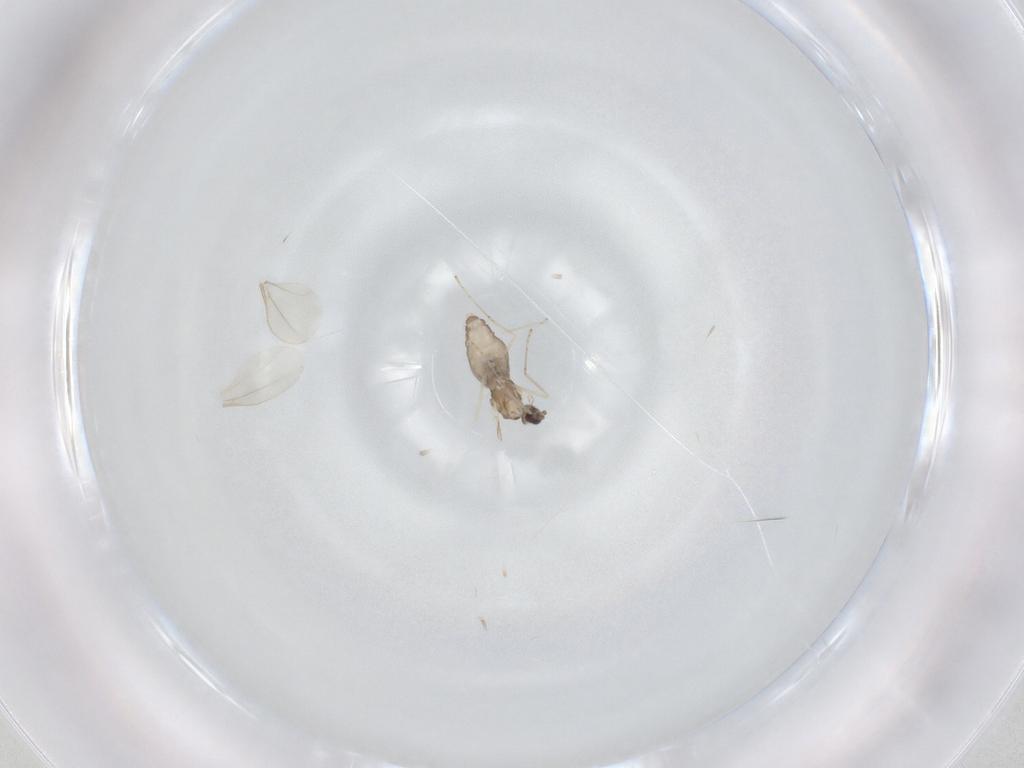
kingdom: Animalia
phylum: Arthropoda
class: Insecta
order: Diptera
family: Cecidomyiidae
